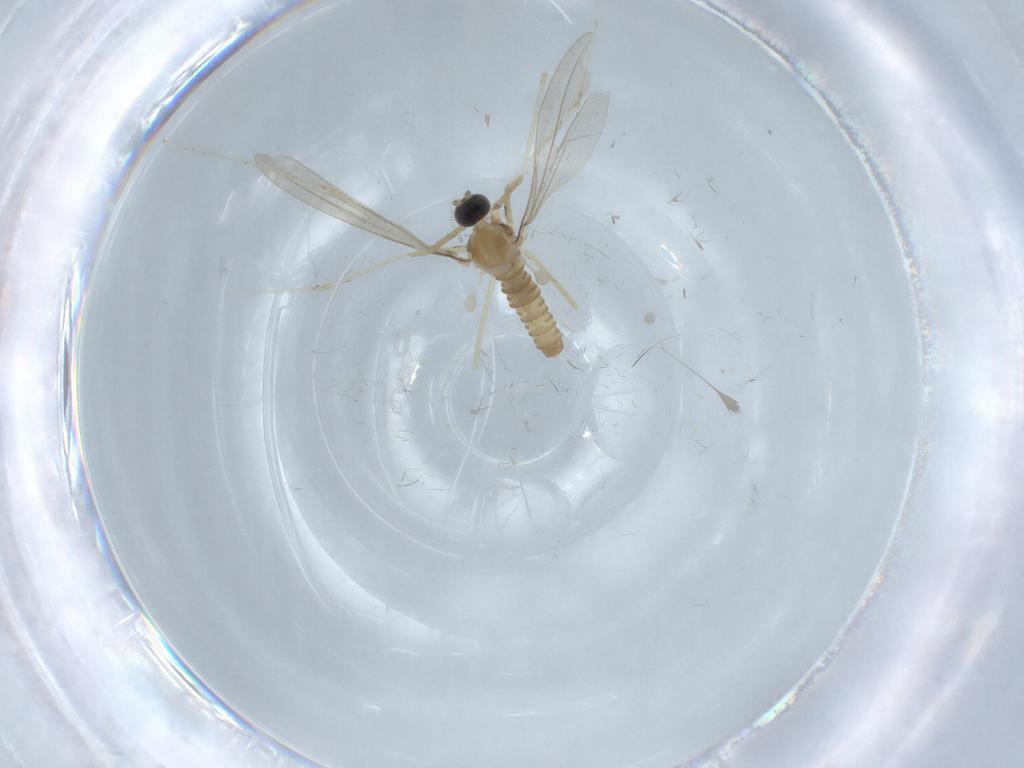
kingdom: Animalia
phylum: Arthropoda
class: Insecta
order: Diptera
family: Cecidomyiidae
